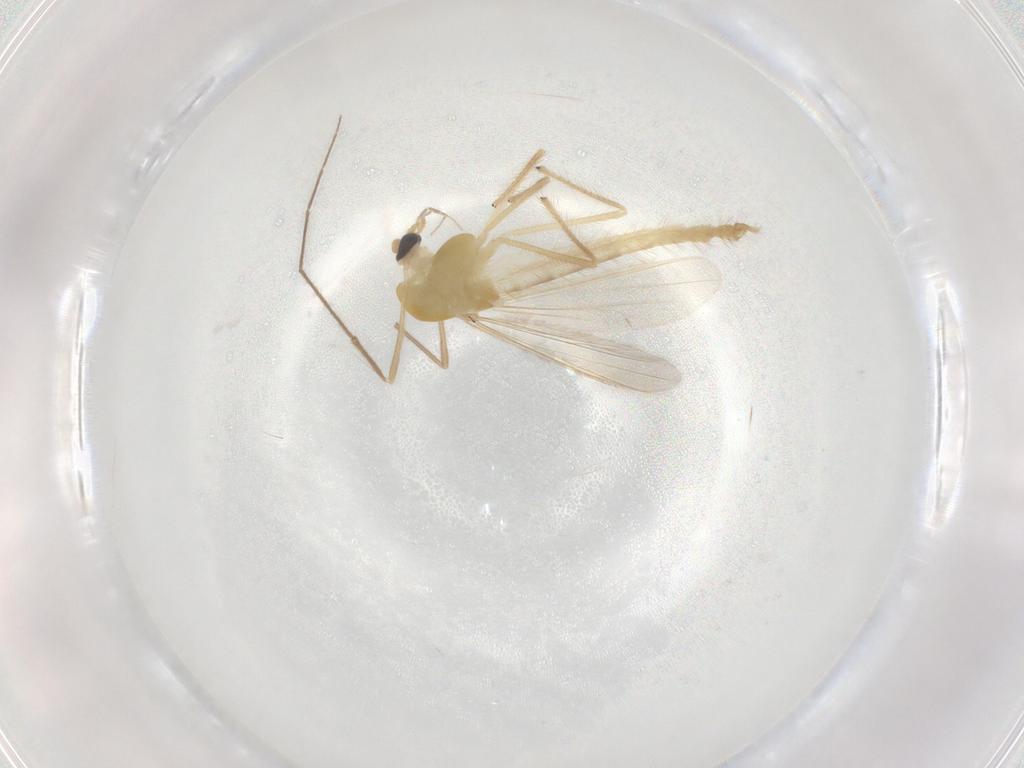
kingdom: Animalia
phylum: Arthropoda
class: Insecta
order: Diptera
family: Chironomidae
